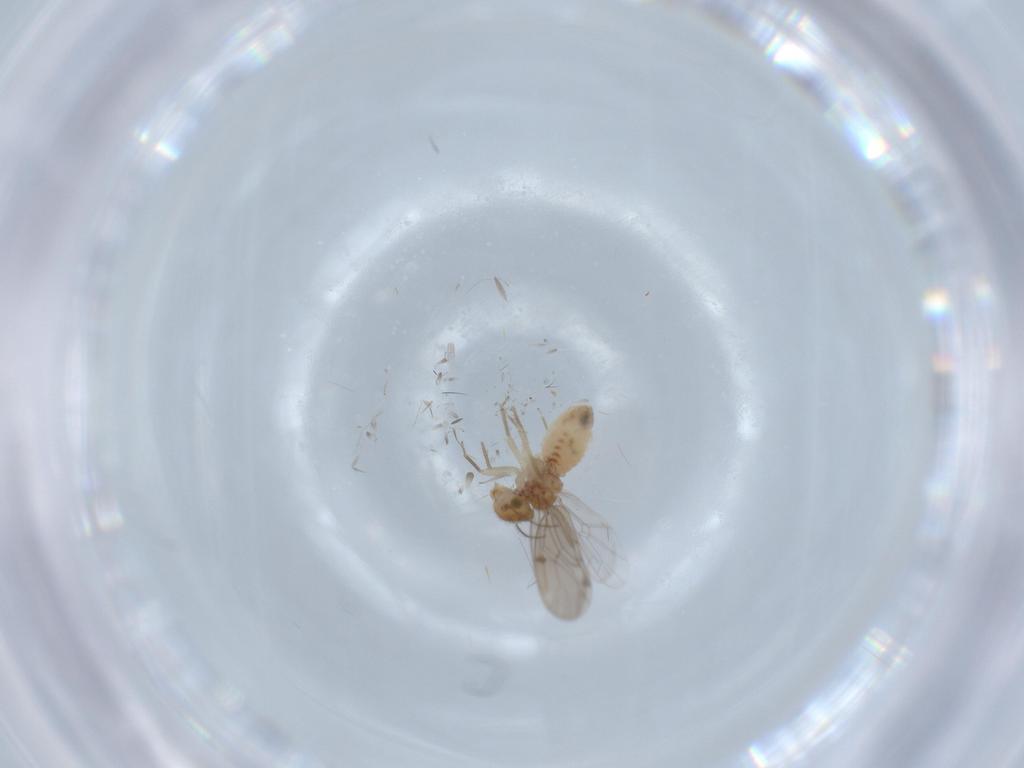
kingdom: Animalia
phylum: Arthropoda
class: Insecta
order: Psocodea
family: Ectopsocidae
